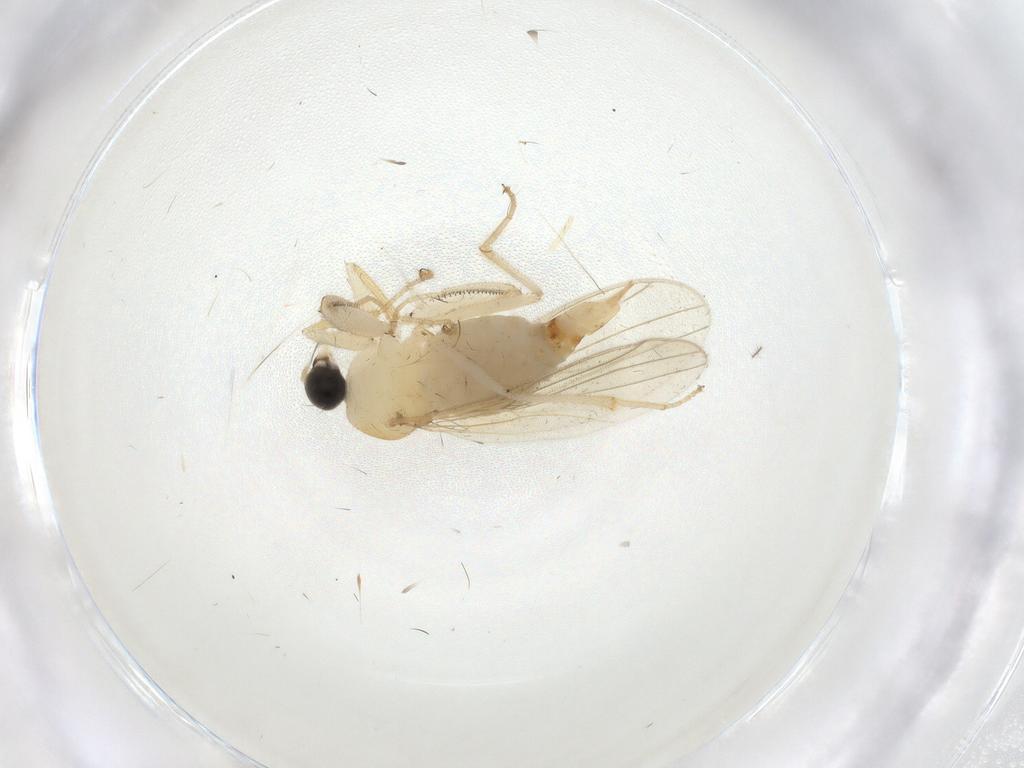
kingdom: Animalia
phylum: Arthropoda
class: Insecta
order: Diptera
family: Hybotidae
